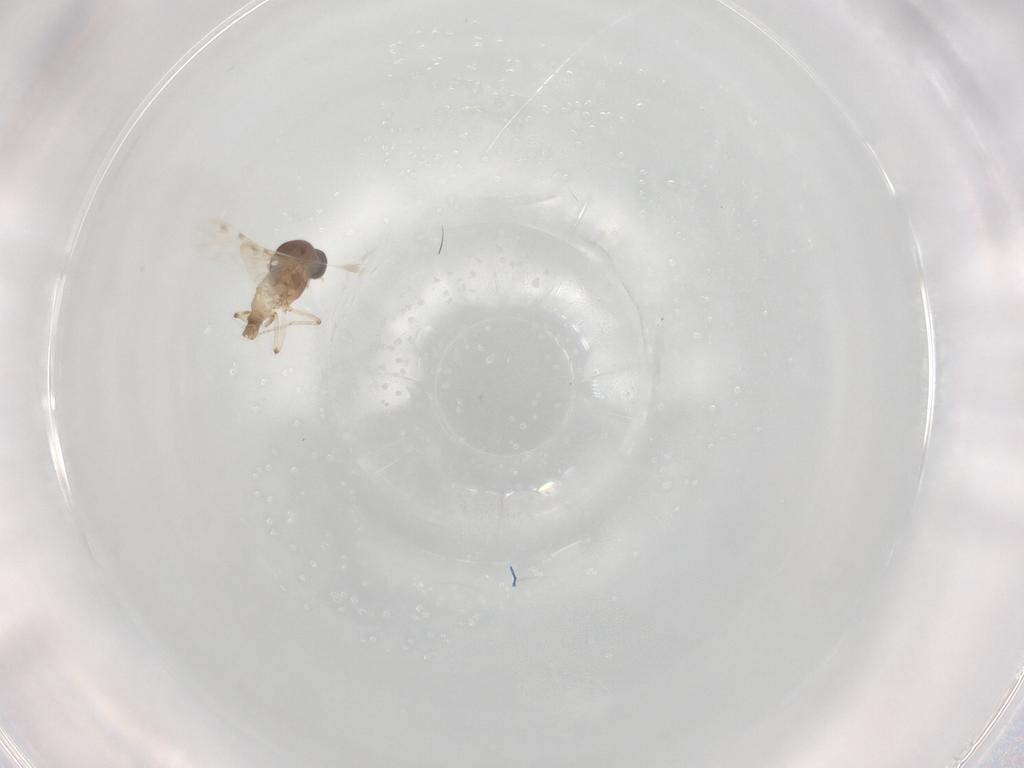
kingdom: Animalia
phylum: Arthropoda
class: Insecta
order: Diptera
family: Ceratopogonidae
